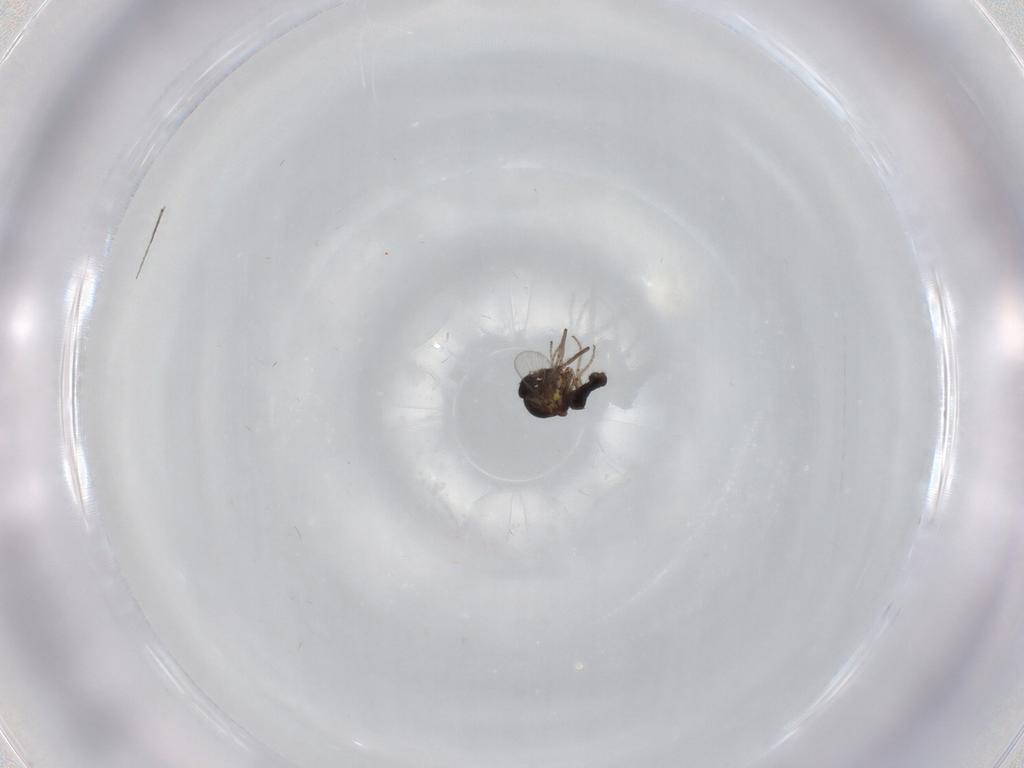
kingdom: Animalia
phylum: Arthropoda
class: Insecta
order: Diptera
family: Ceratopogonidae
